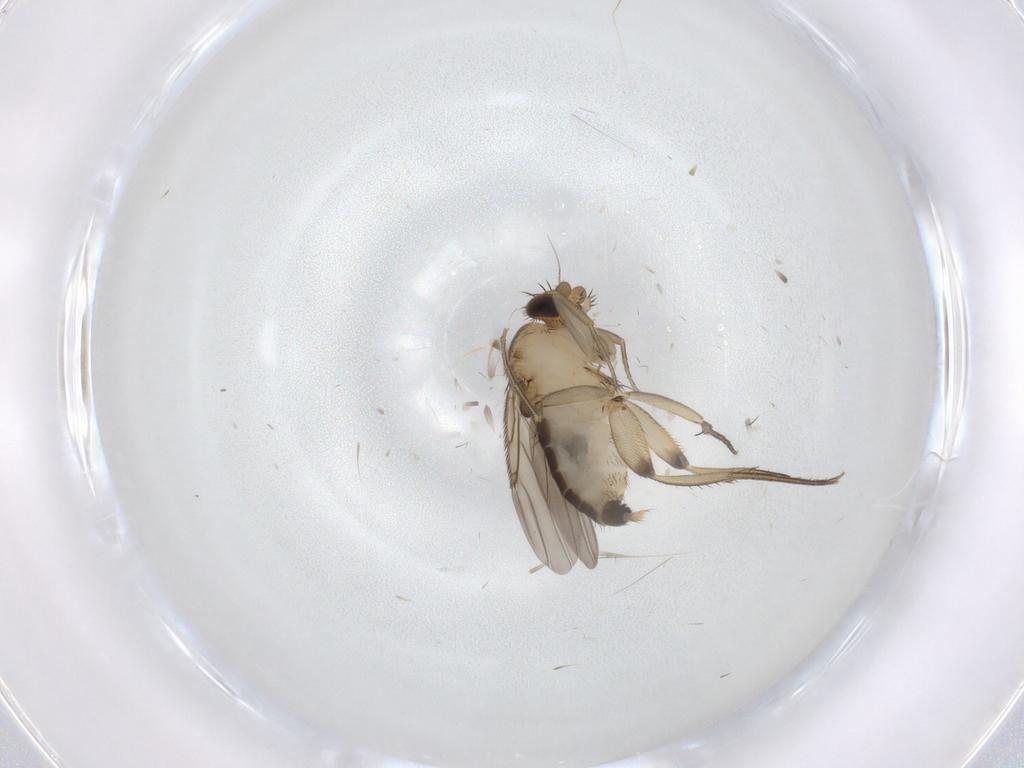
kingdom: Animalia
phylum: Arthropoda
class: Insecta
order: Diptera
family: Phoridae
